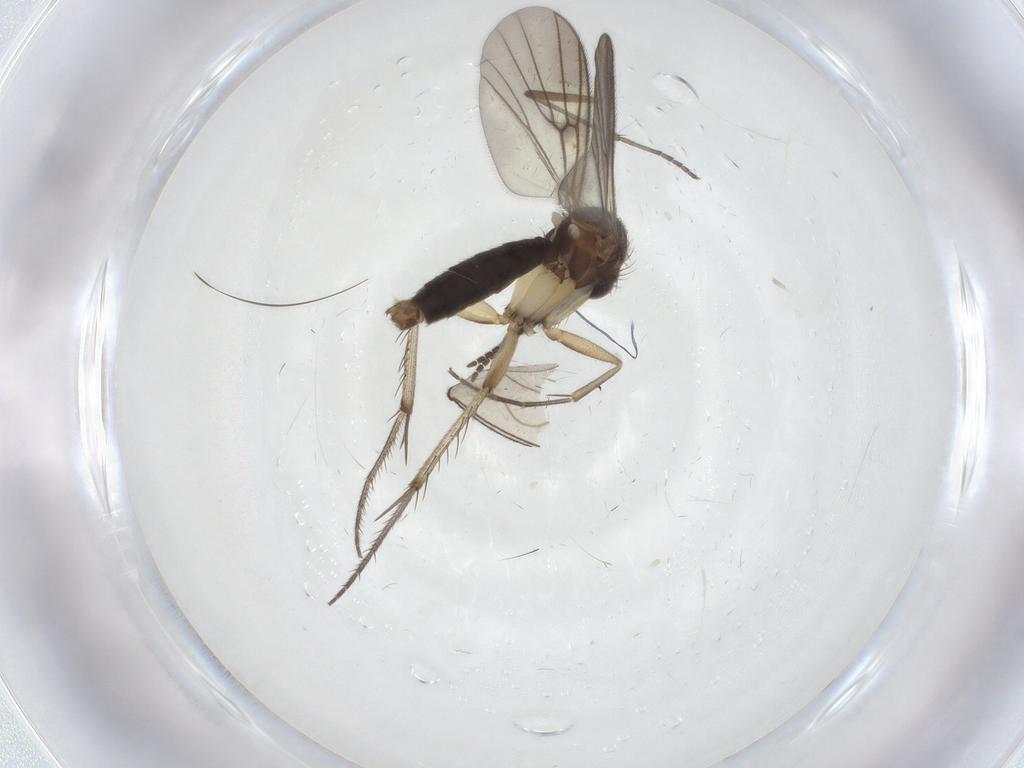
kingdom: Animalia
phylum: Arthropoda
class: Insecta
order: Diptera
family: Mycetophilidae
